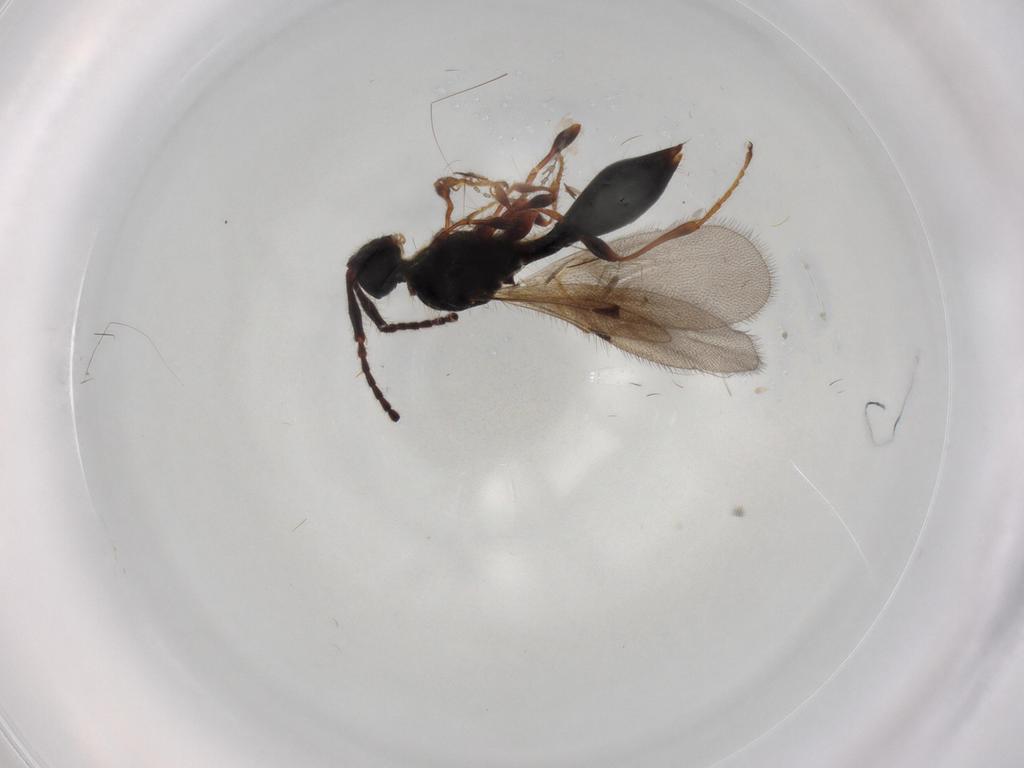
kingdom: Animalia
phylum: Arthropoda
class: Insecta
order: Hymenoptera
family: Diapriidae
